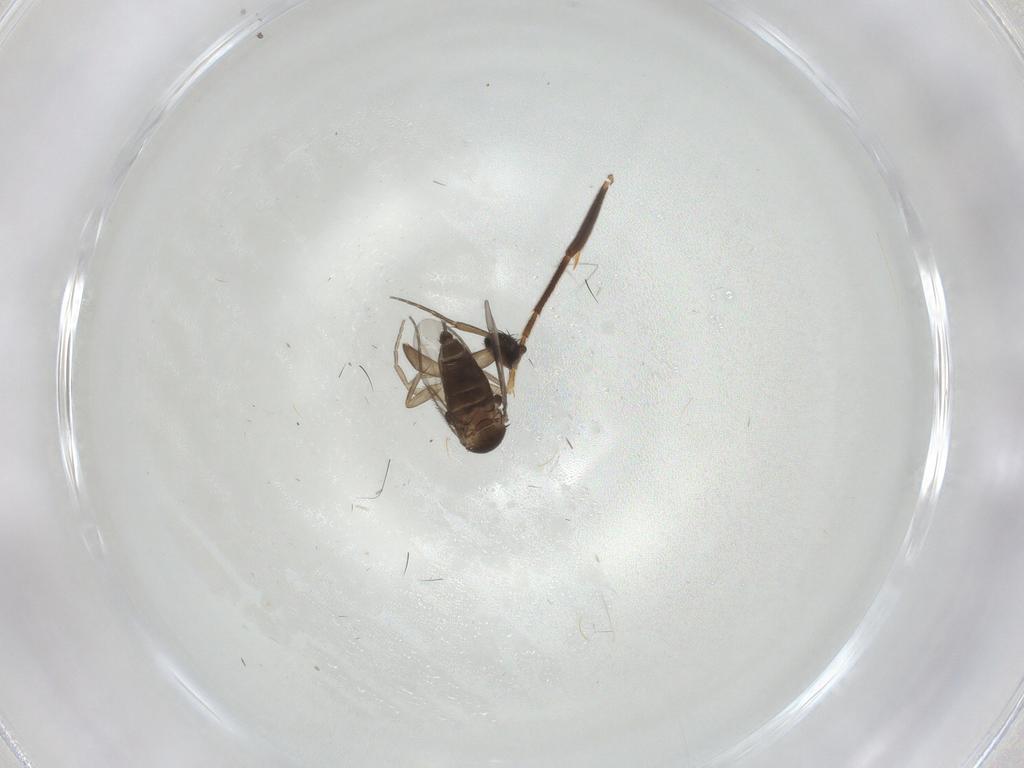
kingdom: Animalia
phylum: Arthropoda
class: Insecta
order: Diptera
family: Phoridae
